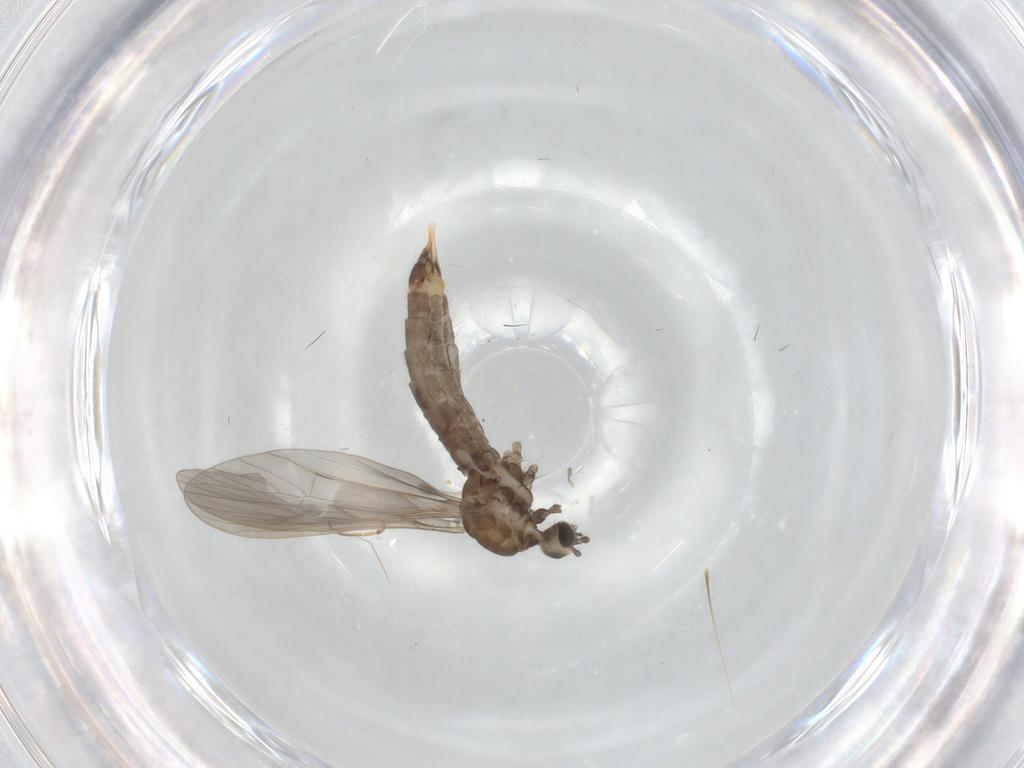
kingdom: Animalia
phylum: Arthropoda
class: Insecta
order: Diptera
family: Limoniidae
